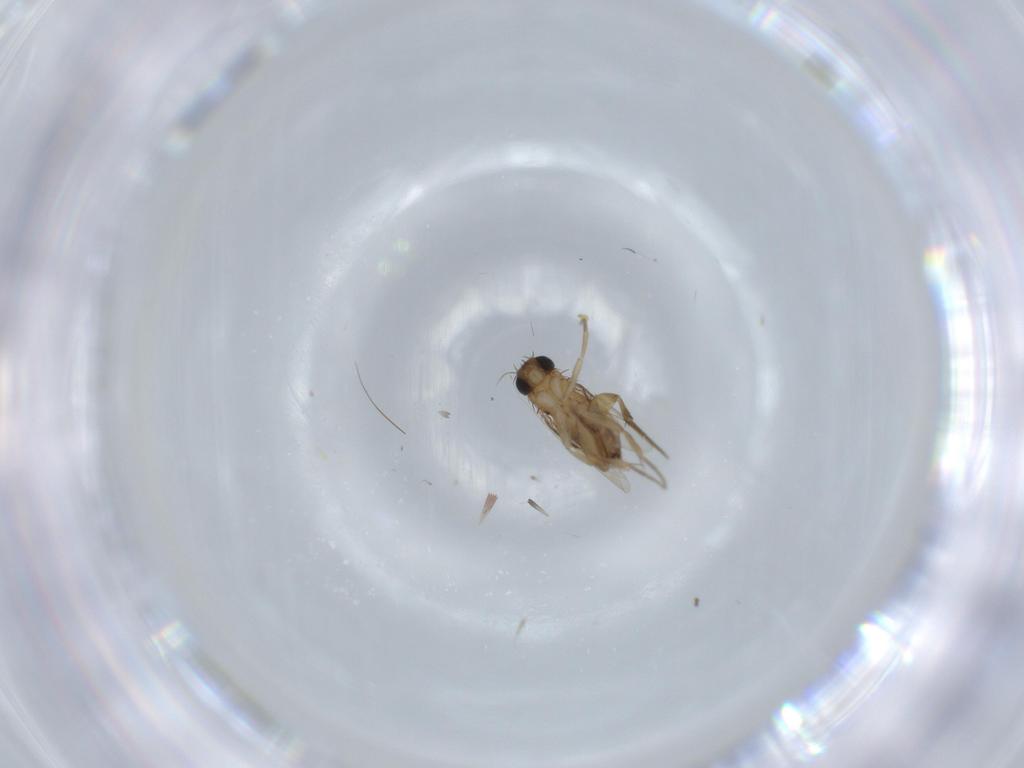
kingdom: Animalia
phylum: Arthropoda
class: Insecta
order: Diptera
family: Phoridae
